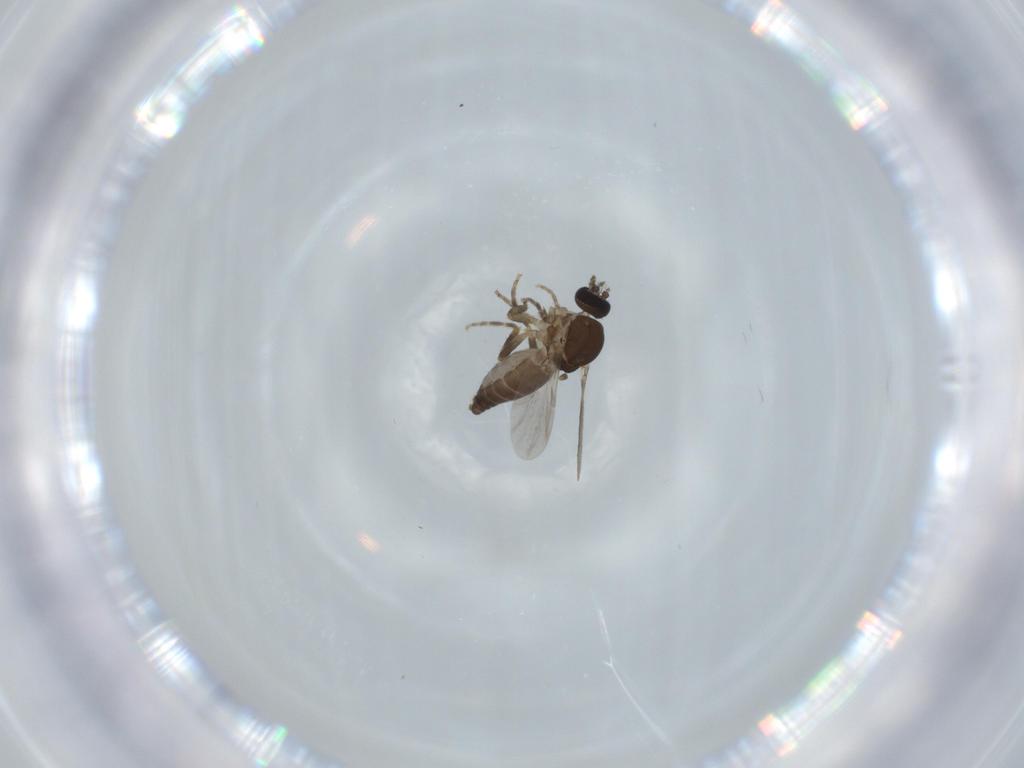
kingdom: Animalia
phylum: Arthropoda
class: Insecta
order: Diptera
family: Ceratopogonidae
